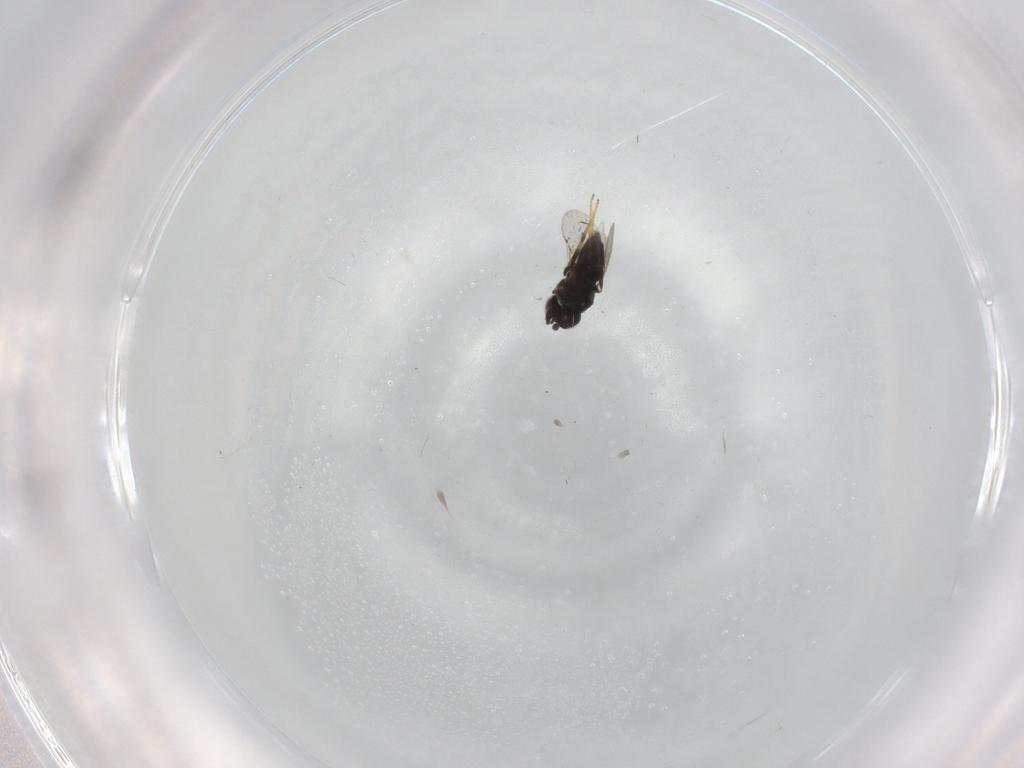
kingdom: Animalia
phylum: Arthropoda
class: Insecta
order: Hymenoptera
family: Aphelinidae
